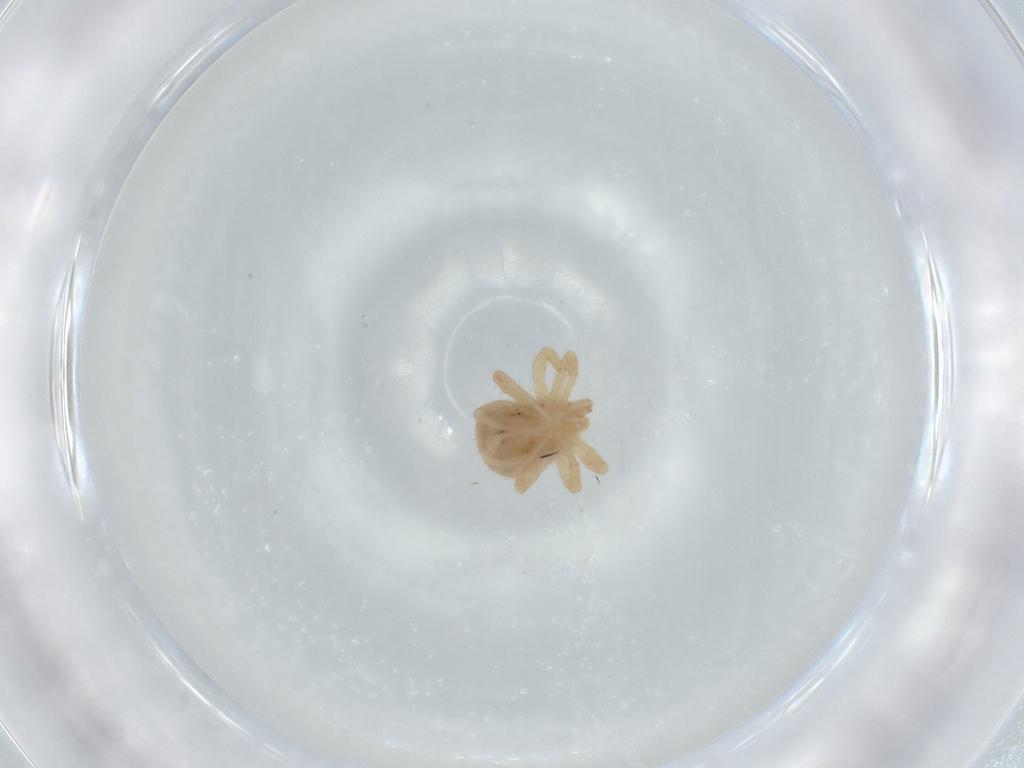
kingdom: Animalia
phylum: Arthropoda
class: Arachnida
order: Trombidiformes
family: Anystidae
